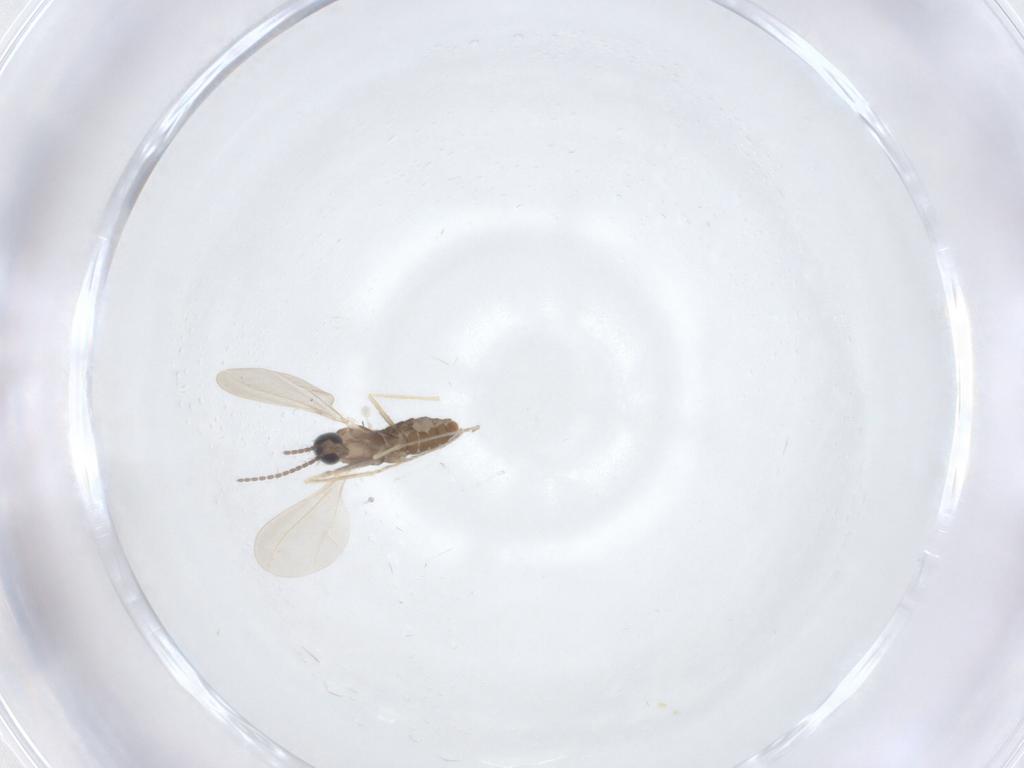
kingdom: Animalia
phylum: Arthropoda
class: Insecta
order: Diptera
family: Cecidomyiidae
